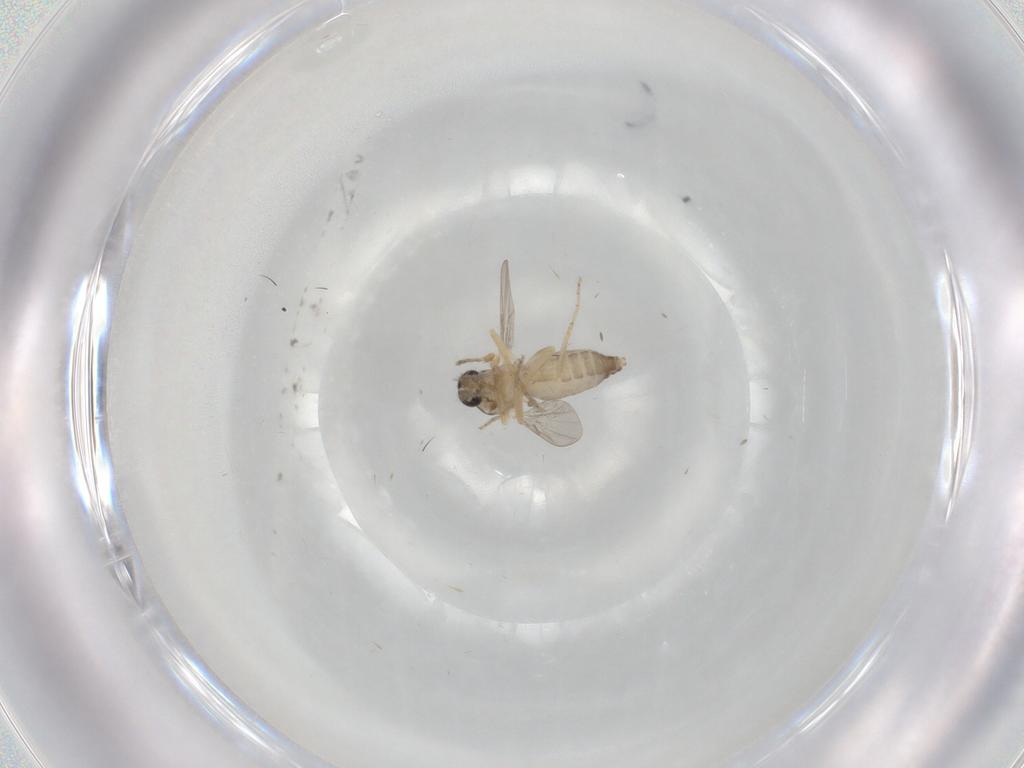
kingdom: Animalia
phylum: Arthropoda
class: Insecta
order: Diptera
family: Ceratopogonidae
